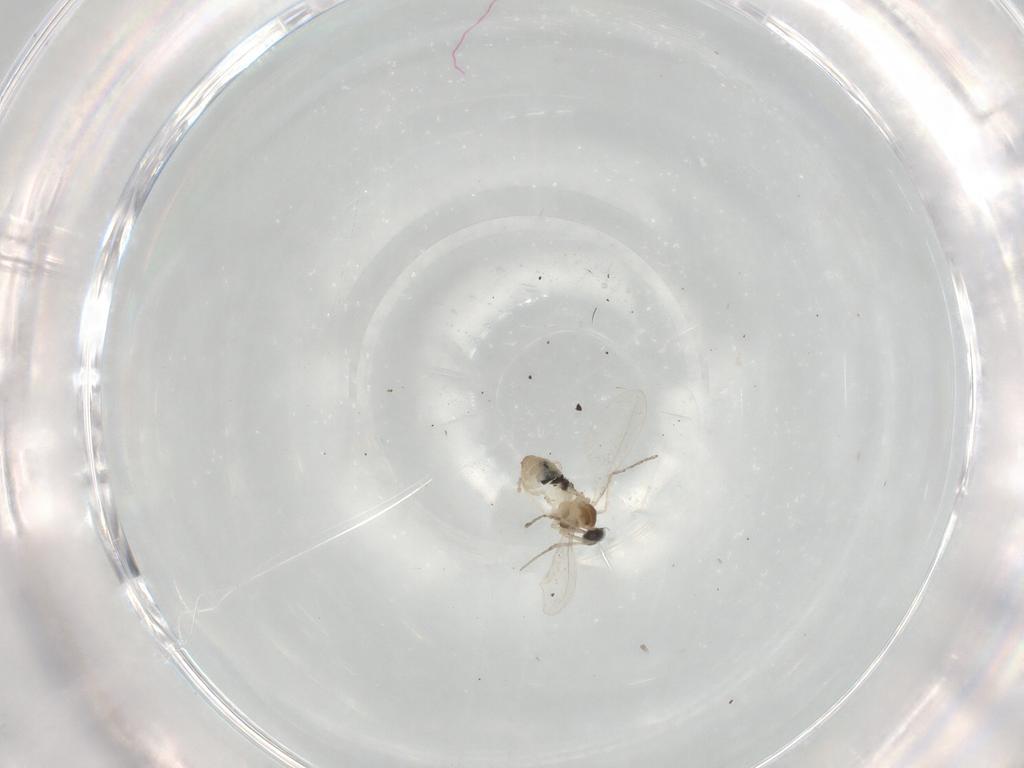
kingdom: Animalia
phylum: Arthropoda
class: Insecta
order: Diptera
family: Cecidomyiidae
